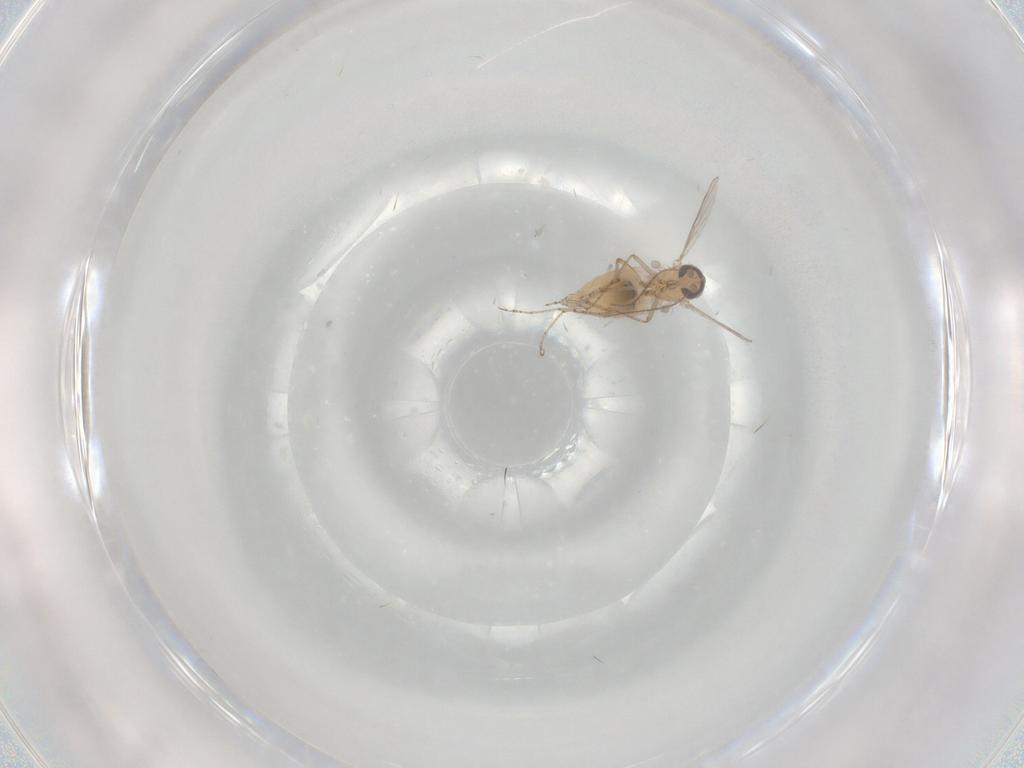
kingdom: Animalia
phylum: Arthropoda
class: Insecta
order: Diptera
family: Cecidomyiidae
